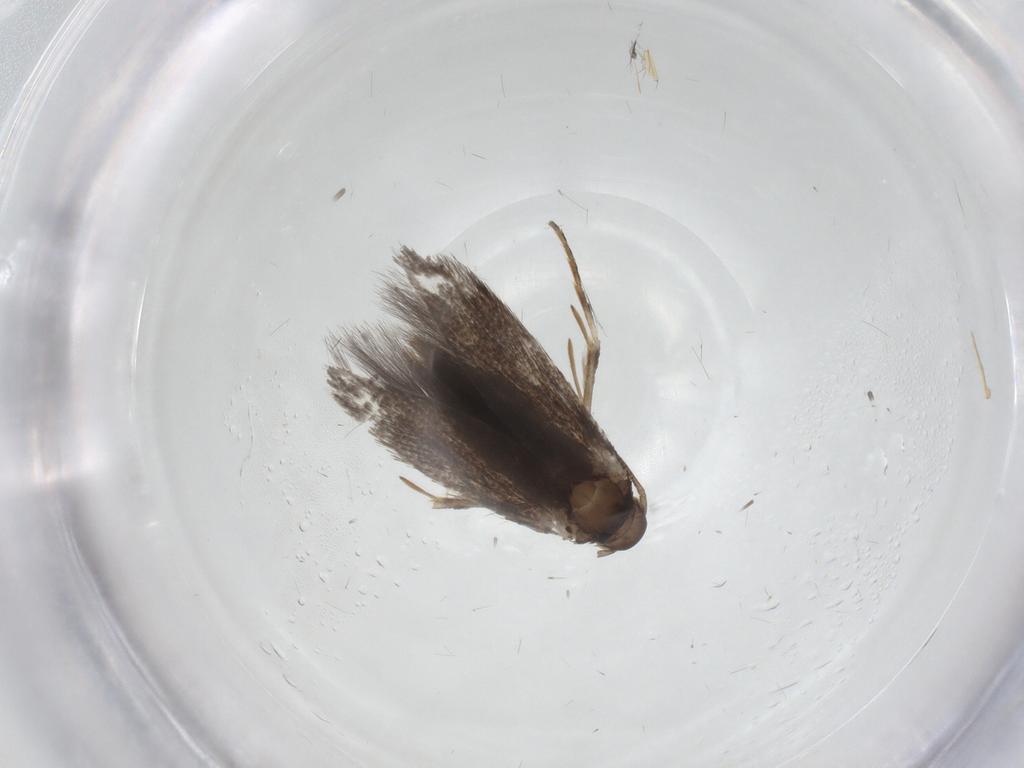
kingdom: Animalia
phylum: Arthropoda
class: Insecta
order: Lepidoptera
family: Elachistidae
